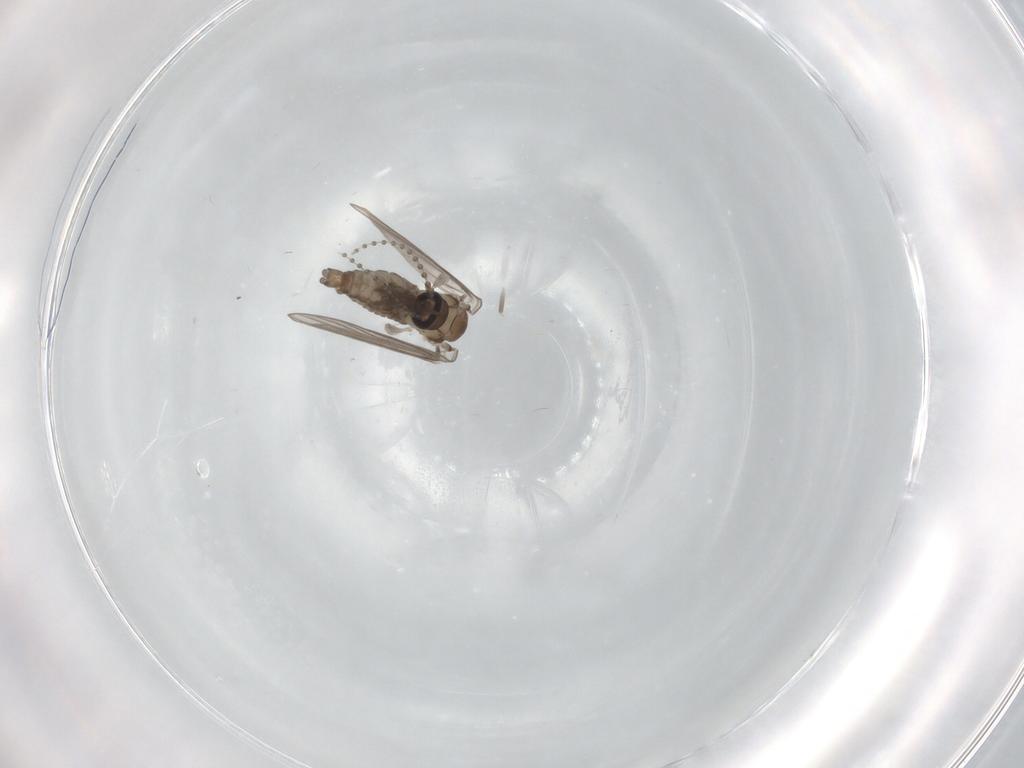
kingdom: Animalia
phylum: Arthropoda
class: Insecta
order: Diptera
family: Psychodidae
